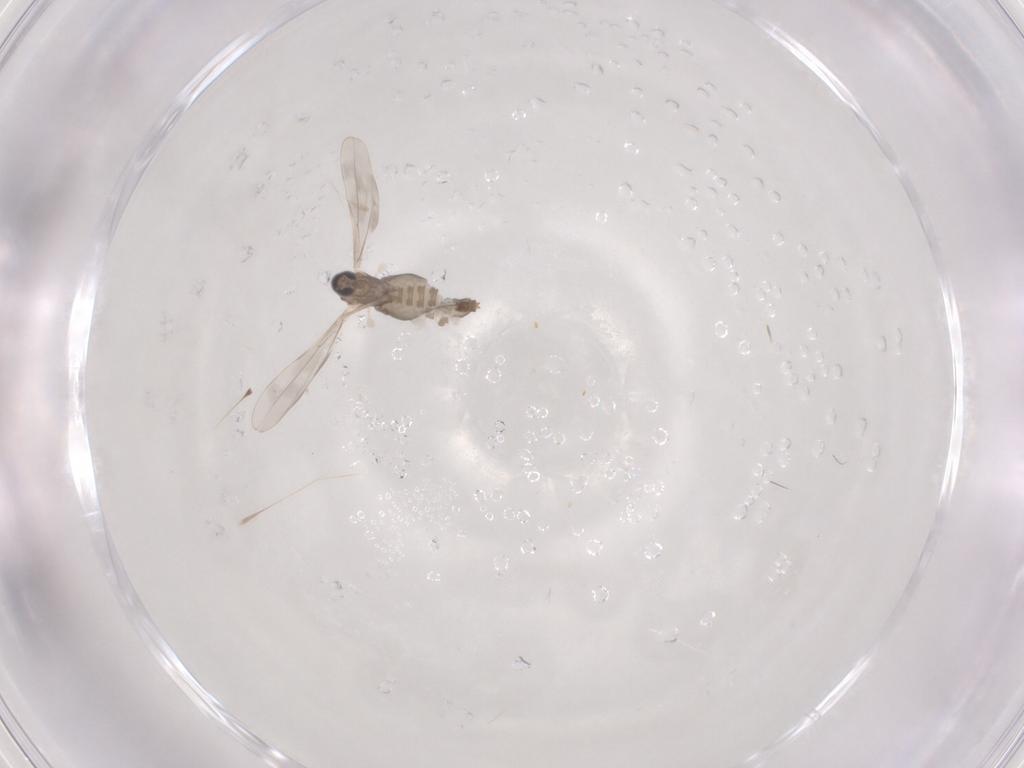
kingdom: Animalia
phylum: Arthropoda
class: Insecta
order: Diptera
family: Cecidomyiidae
